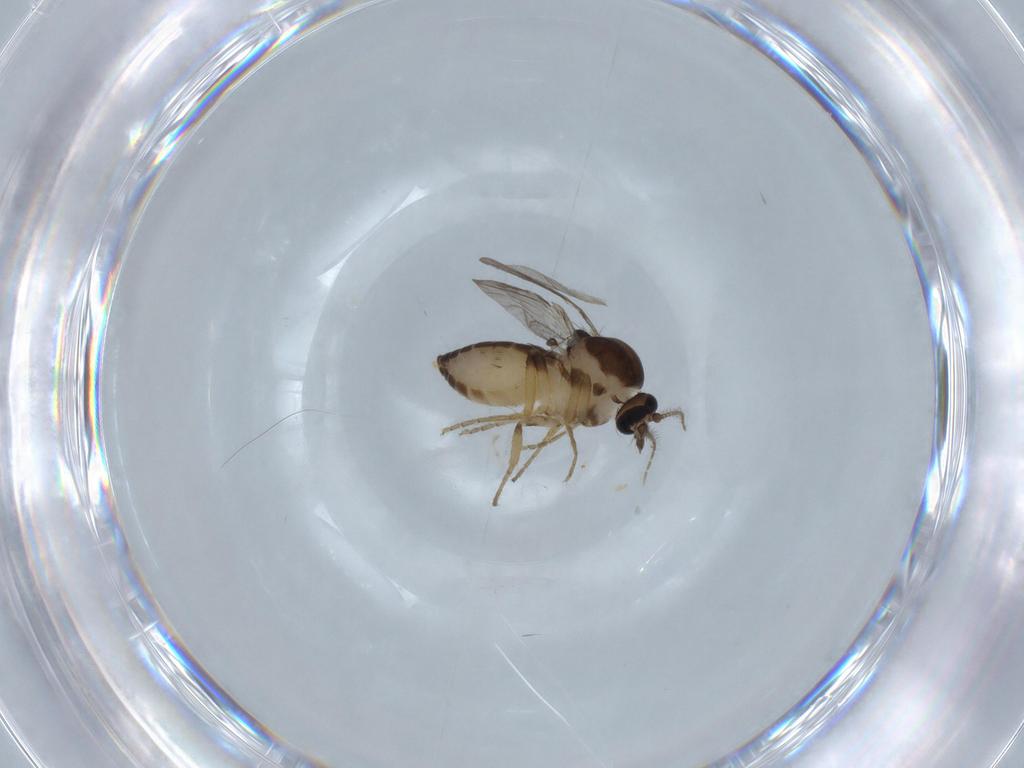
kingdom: Animalia
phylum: Arthropoda
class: Insecta
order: Diptera
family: Ceratopogonidae
